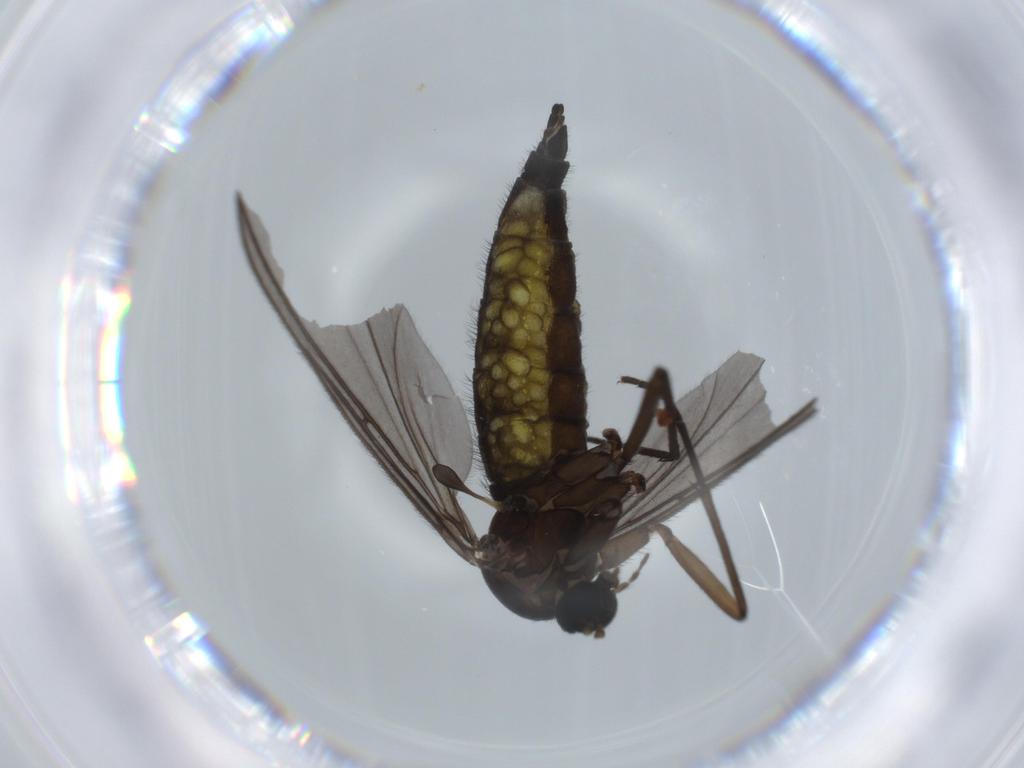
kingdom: Animalia
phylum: Arthropoda
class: Insecta
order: Diptera
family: Sciaridae
